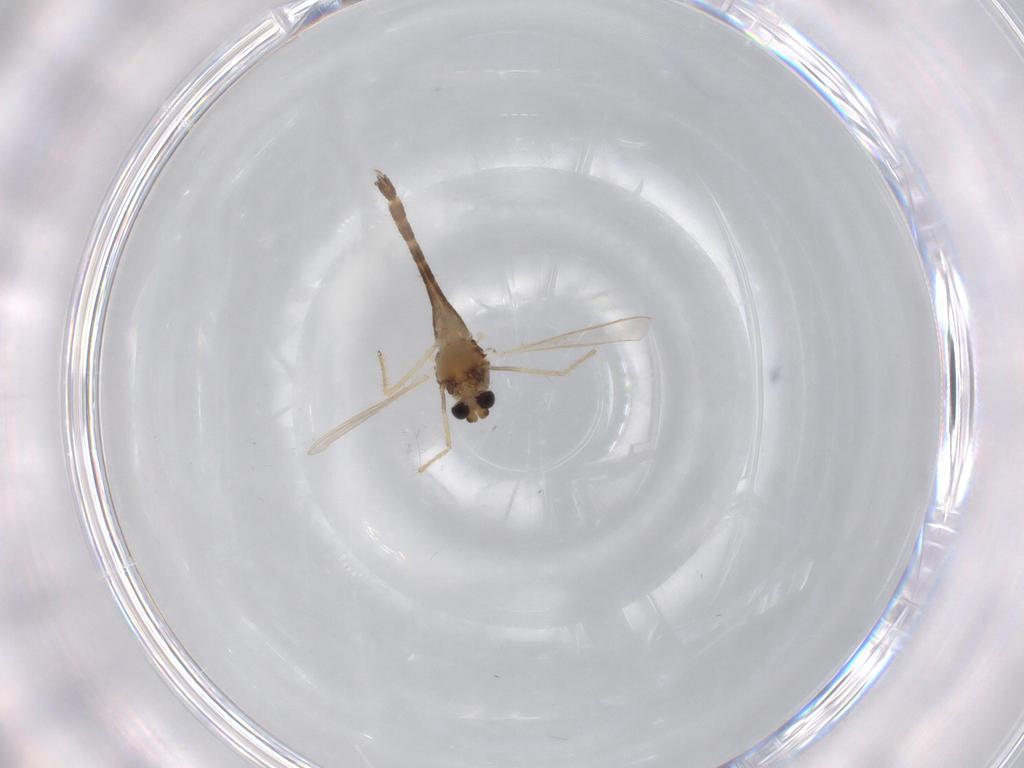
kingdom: Animalia
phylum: Arthropoda
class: Insecta
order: Diptera
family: Chironomidae
